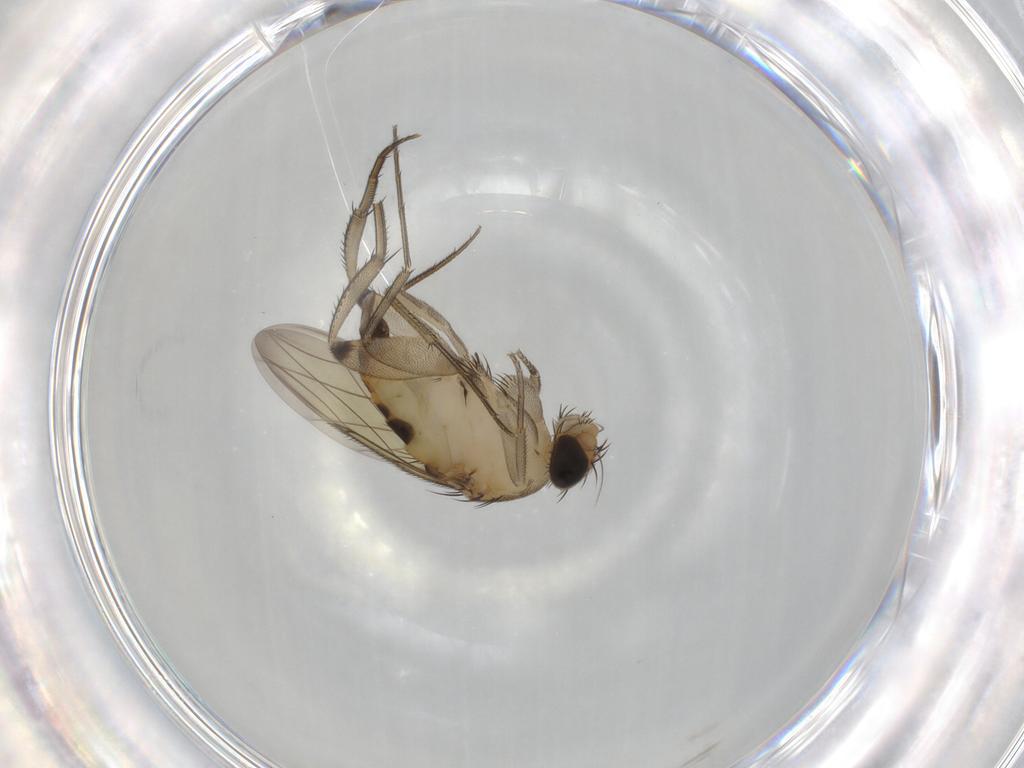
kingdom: Animalia
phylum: Arthropoda
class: Insecta
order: Diptera
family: Phoridae
